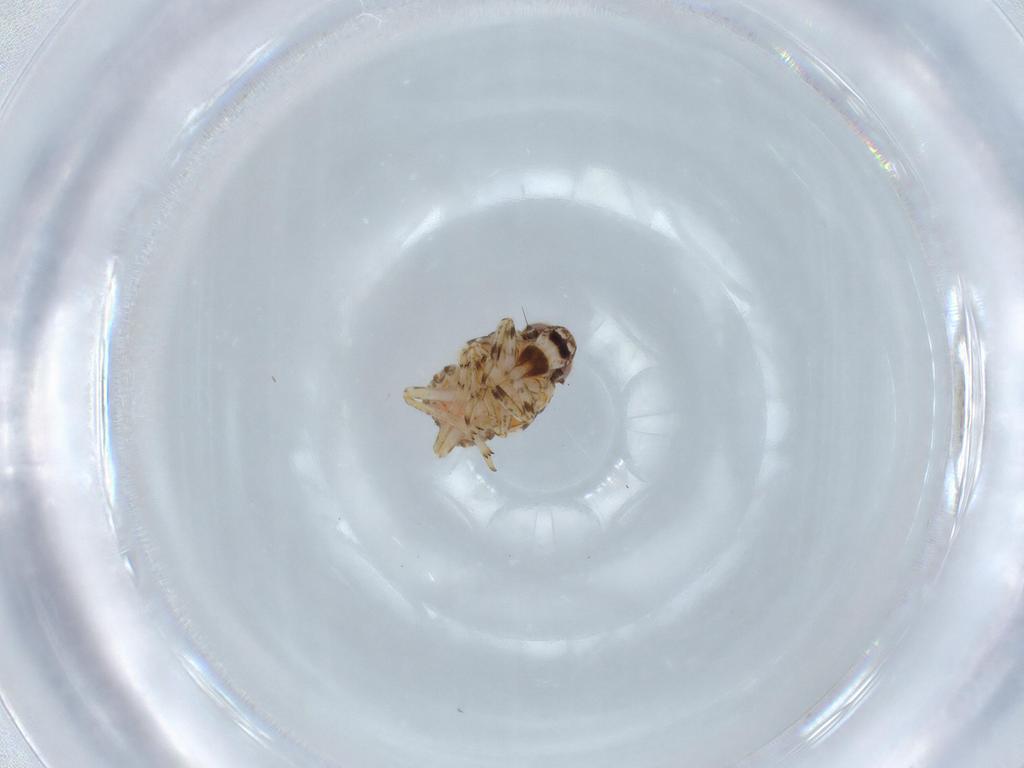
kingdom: Animalia
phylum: Arthropoda
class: Insecta
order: Hemiptera
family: Issidae
